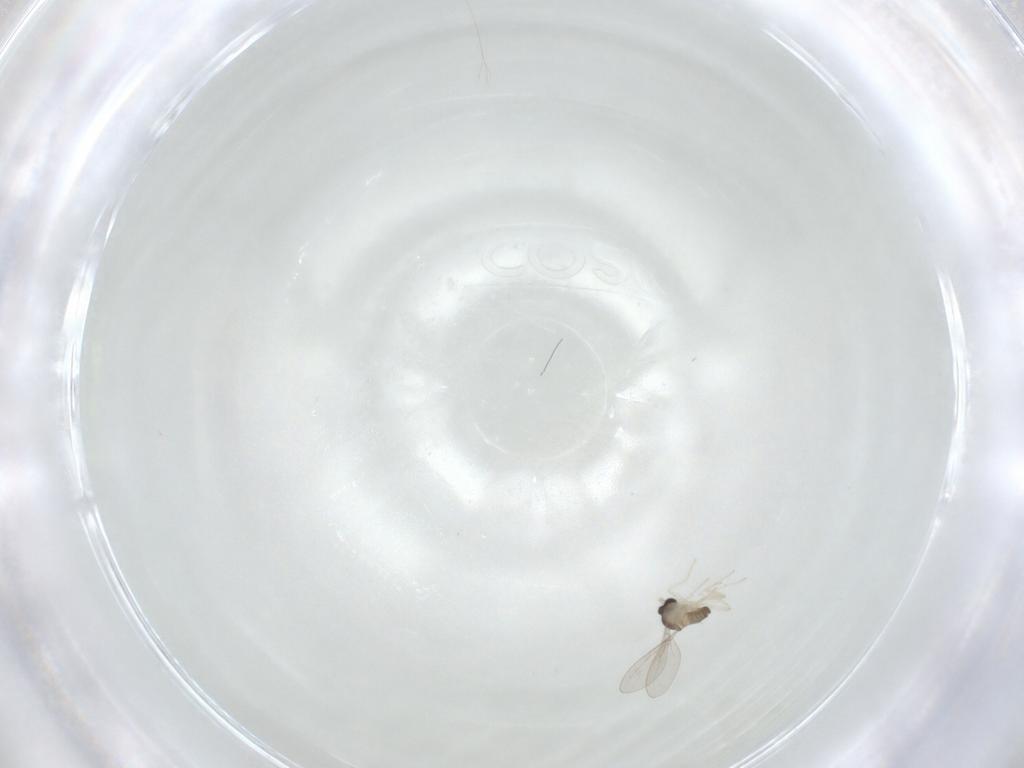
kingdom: Animalia
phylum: Arthropoda
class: Insecta
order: Diptera
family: Cecidomyiidae
